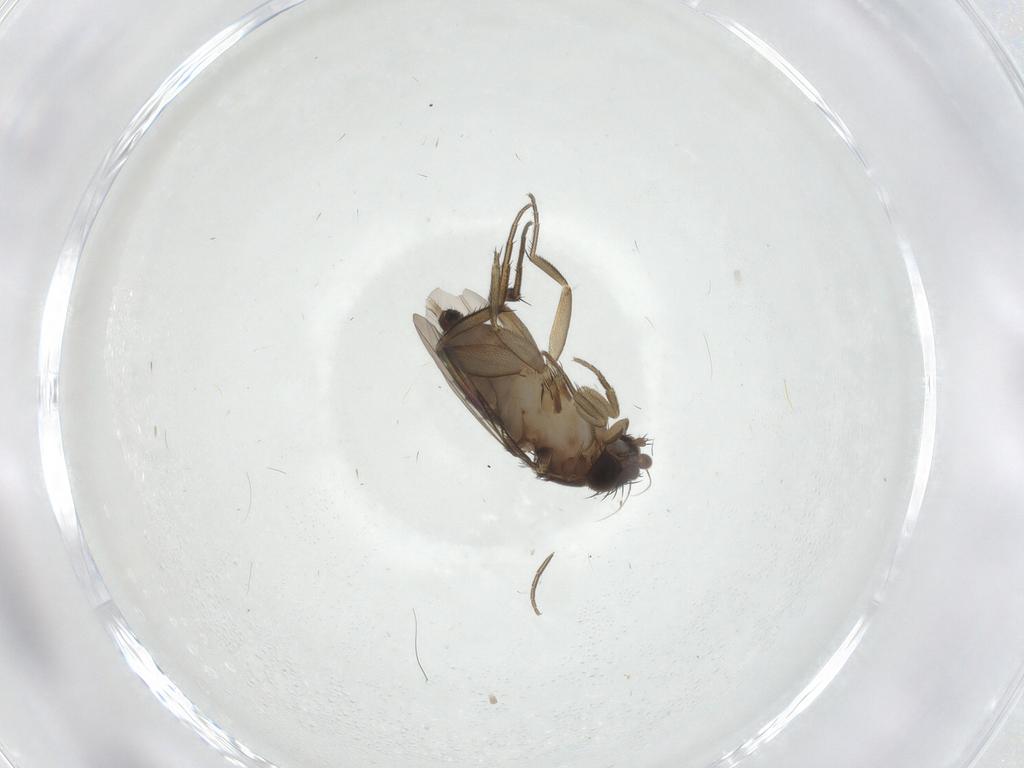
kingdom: Animalia
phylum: Arthropoda
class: Insecta
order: Diptera
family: Phoridae
